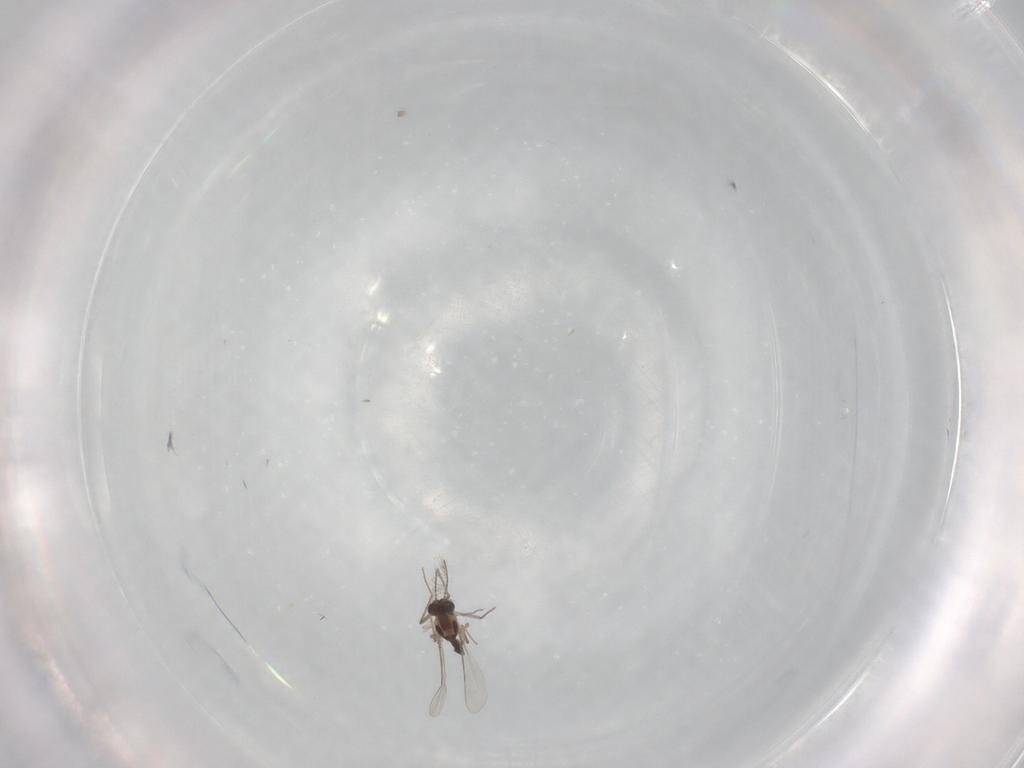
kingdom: Animalia
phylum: Arthropoda
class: Insecta
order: Diptera
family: Chironomidae
